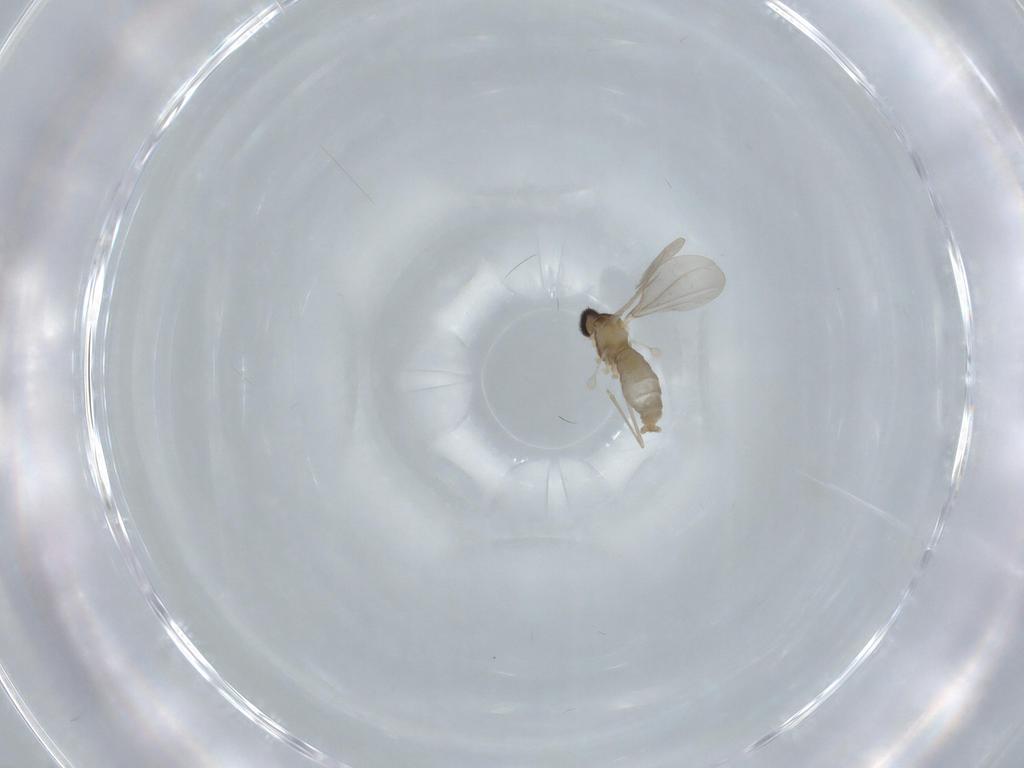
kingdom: Animalia
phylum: Arthropoda
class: Insecta
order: Diptera
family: Cecidomyiidae
